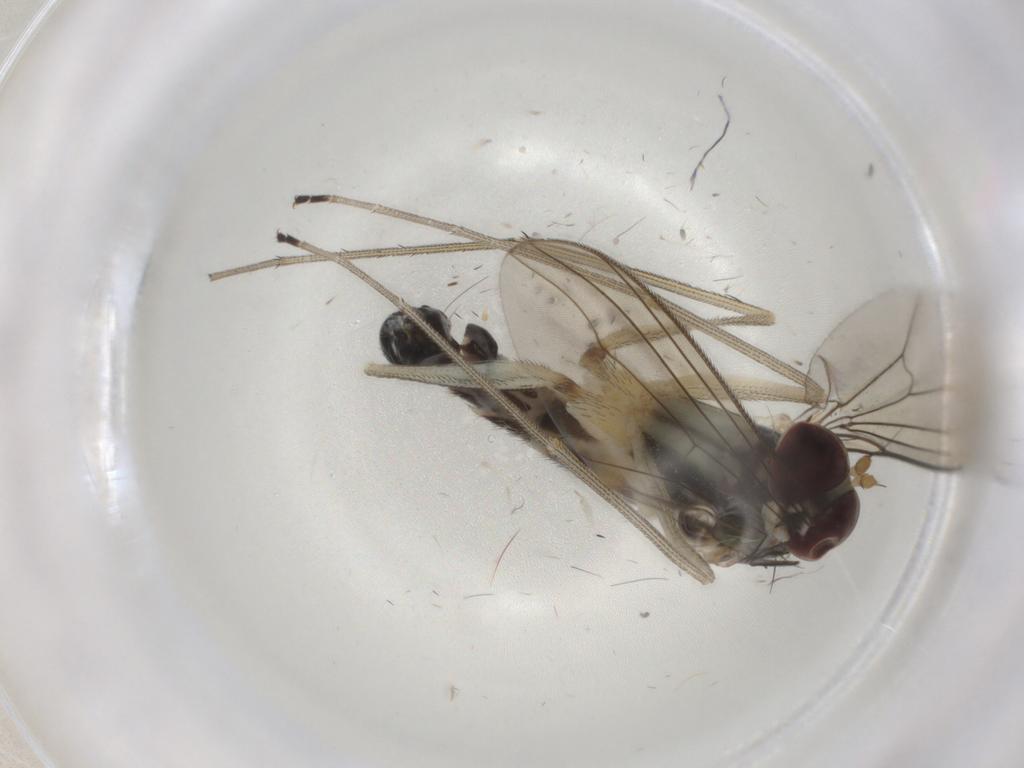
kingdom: Animalia
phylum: Arthropoda
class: Insecta
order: Diptera
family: Dolichopodidae
